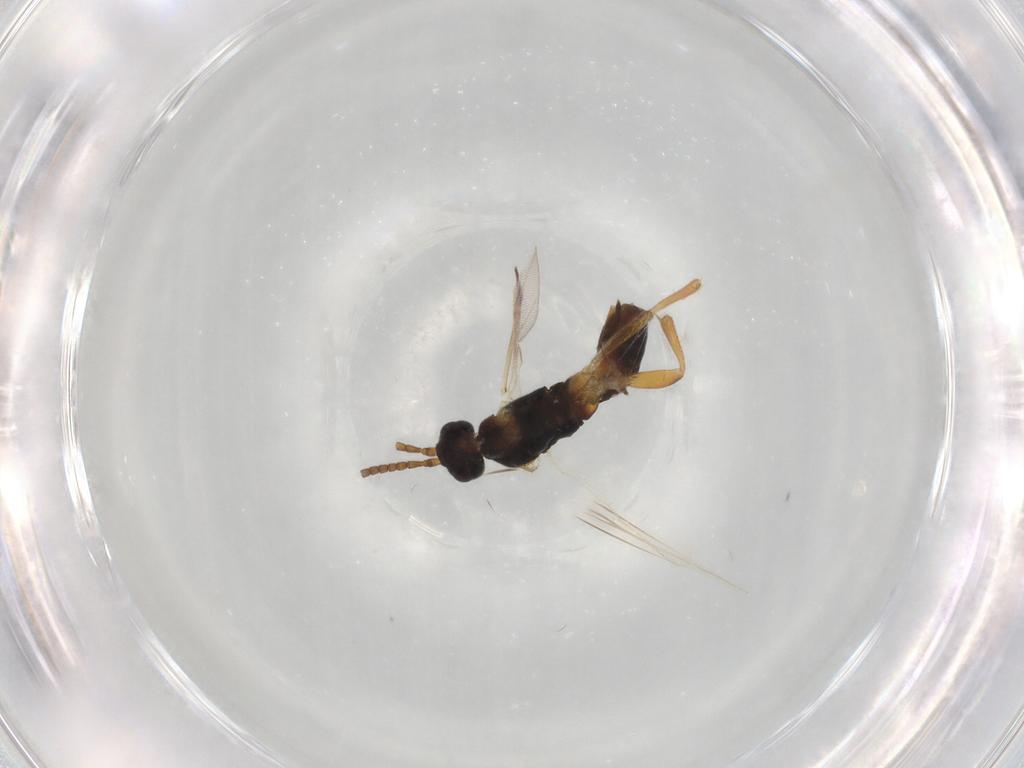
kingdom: Animalia
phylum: Arthropoda
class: Insecta
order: Hymenoptera
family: Braconidae
